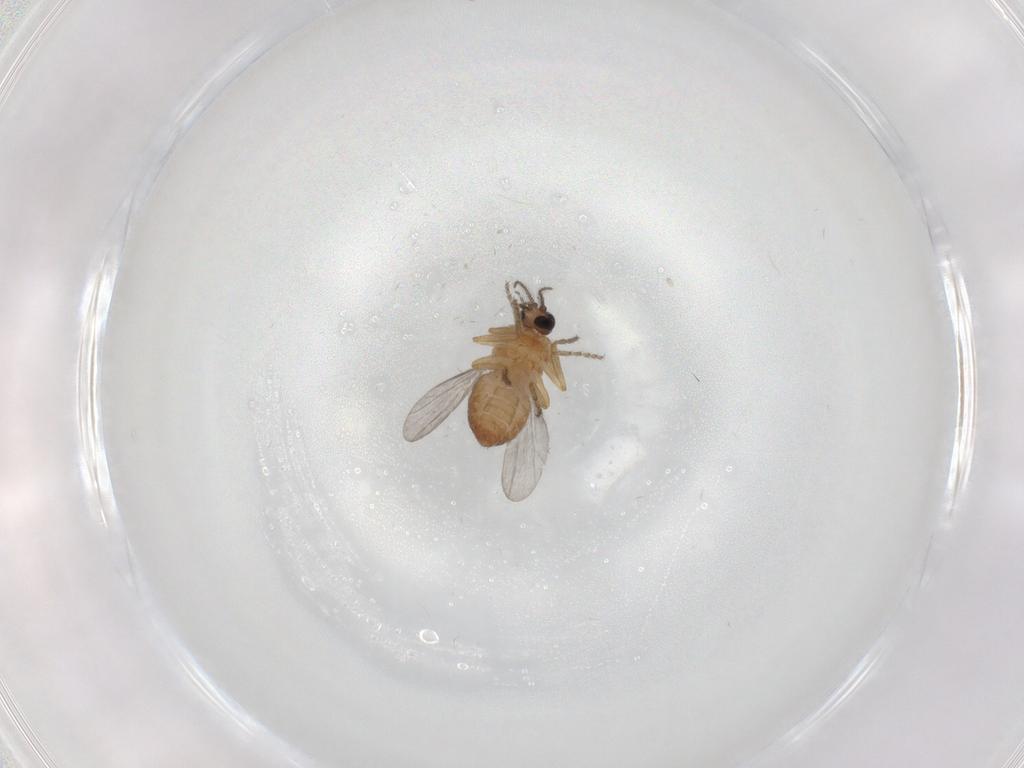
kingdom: Animalia
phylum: Arthropoda
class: Insecta
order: Diptera
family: Ceratopogonidae
